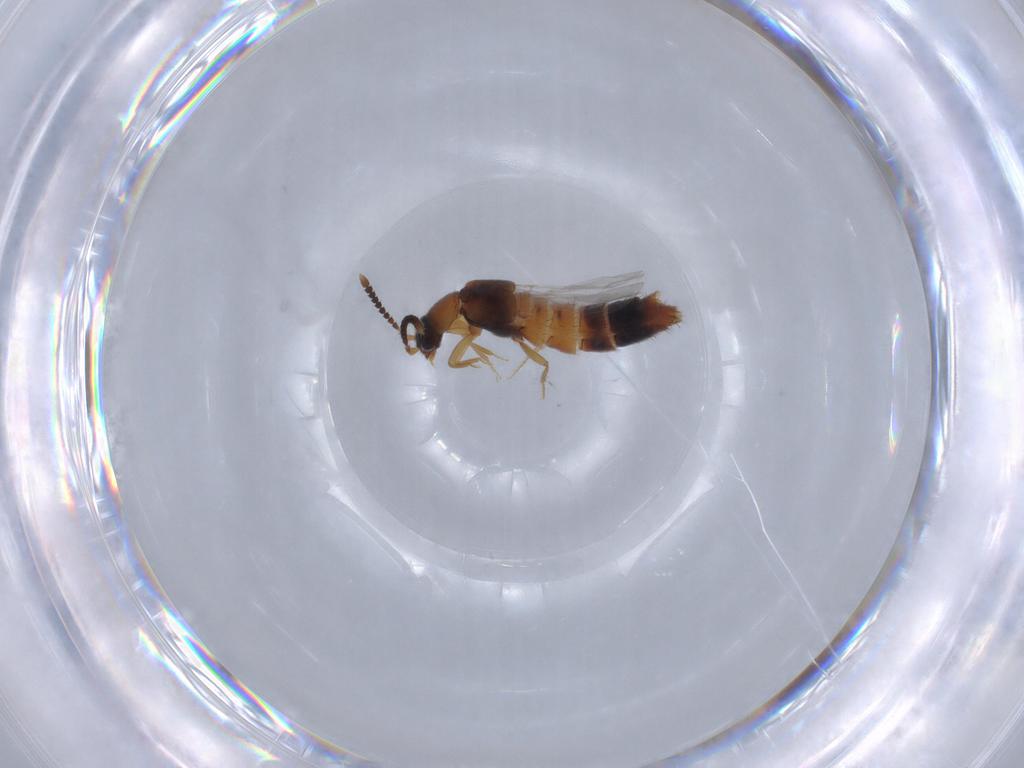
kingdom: Animalia
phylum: Arthropoda
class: Insecta
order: Coleoptera
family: Staphylinidae
